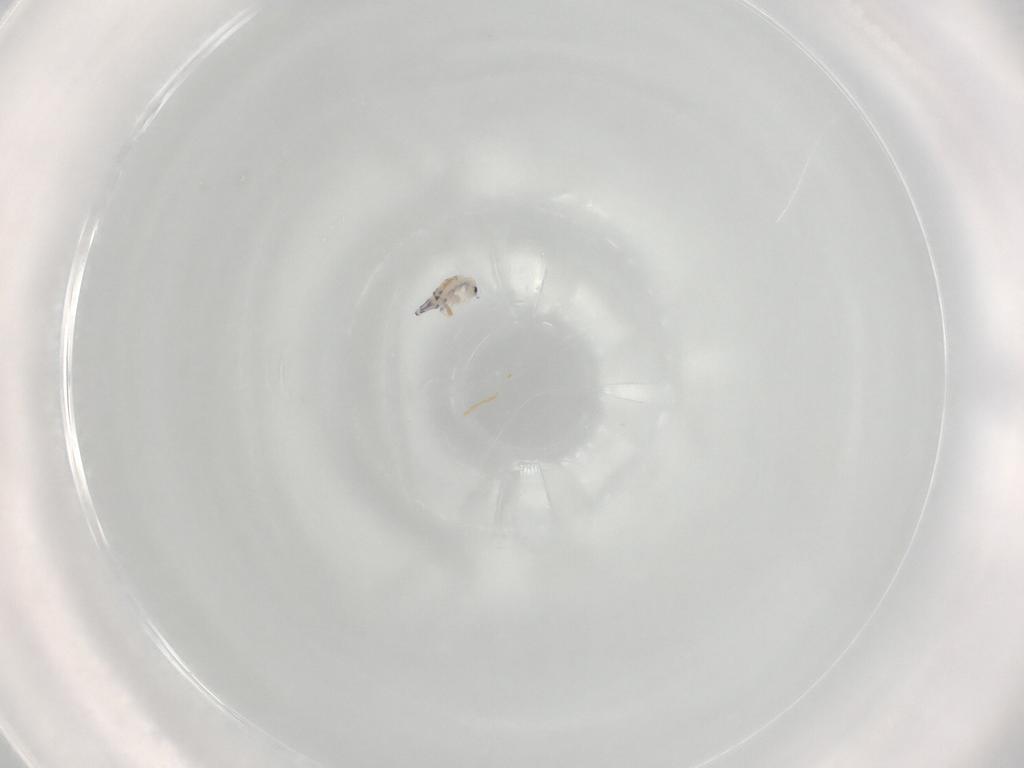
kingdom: Animalia
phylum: Arthropoda
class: Collembola
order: Entomobryomorpha
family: Entomobryidae
